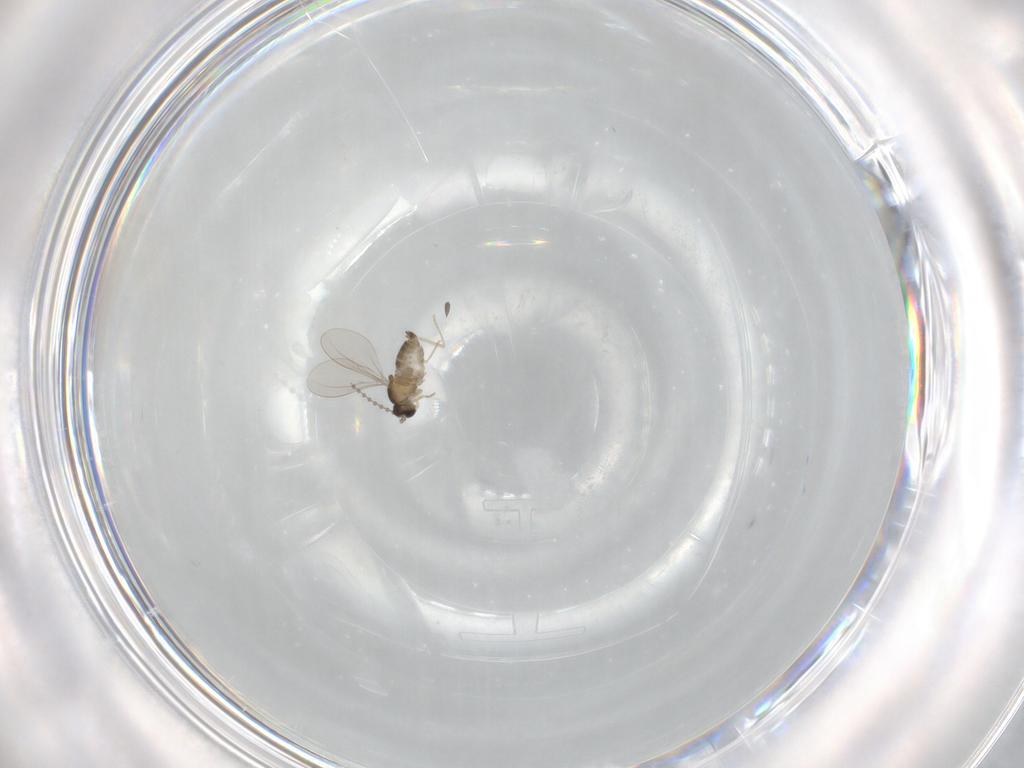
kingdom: Animalia
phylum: Arthropoda
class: Insecta
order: Diptera
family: Cecidomyiidae
